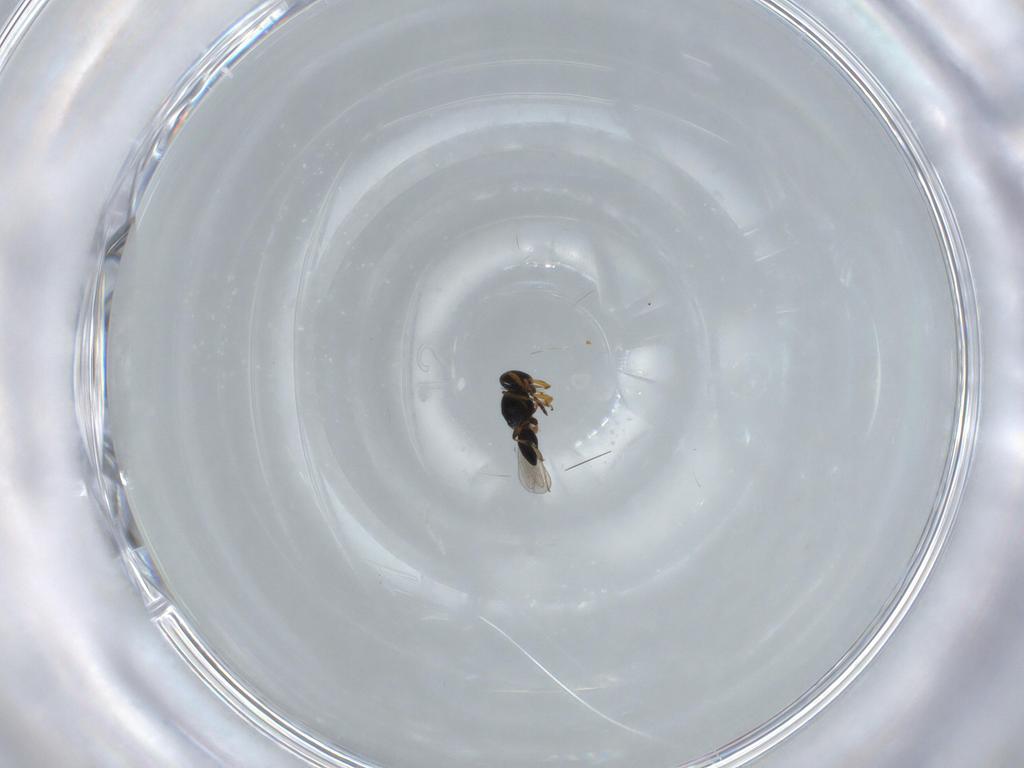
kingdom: Animalia
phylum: Arthropoda
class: Insecta
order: Hymenoptera
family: Platygastridae
